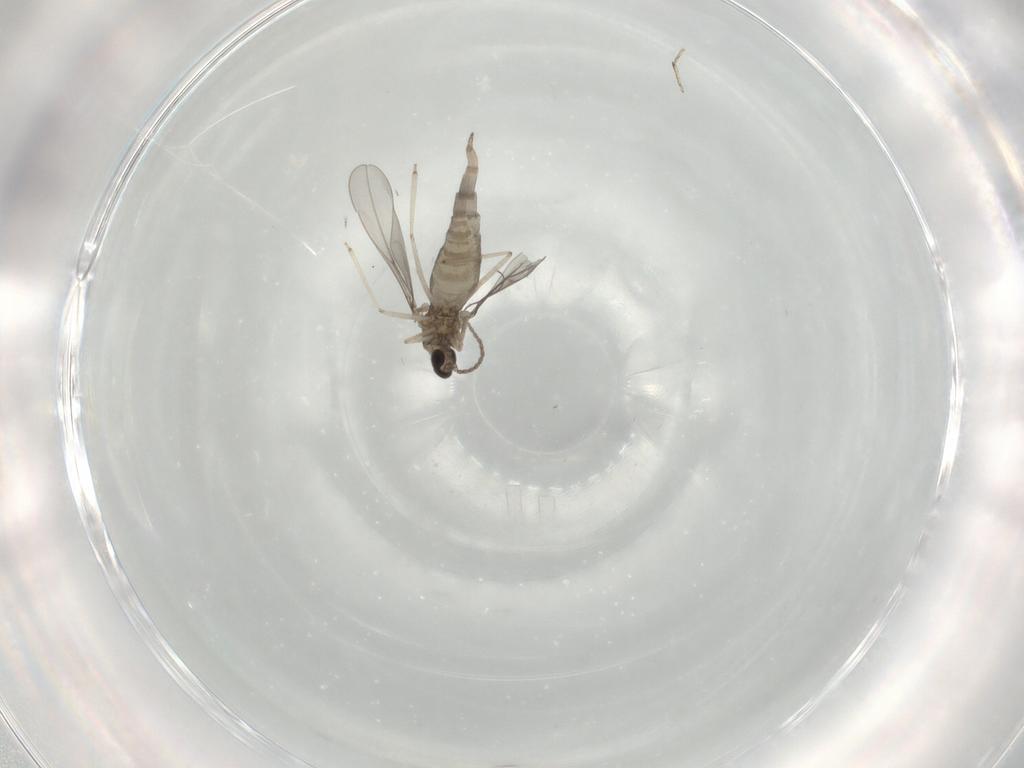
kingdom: Animalia
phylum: Arthropoda
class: Insecta
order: Diptera
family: Cecidomyiidae
